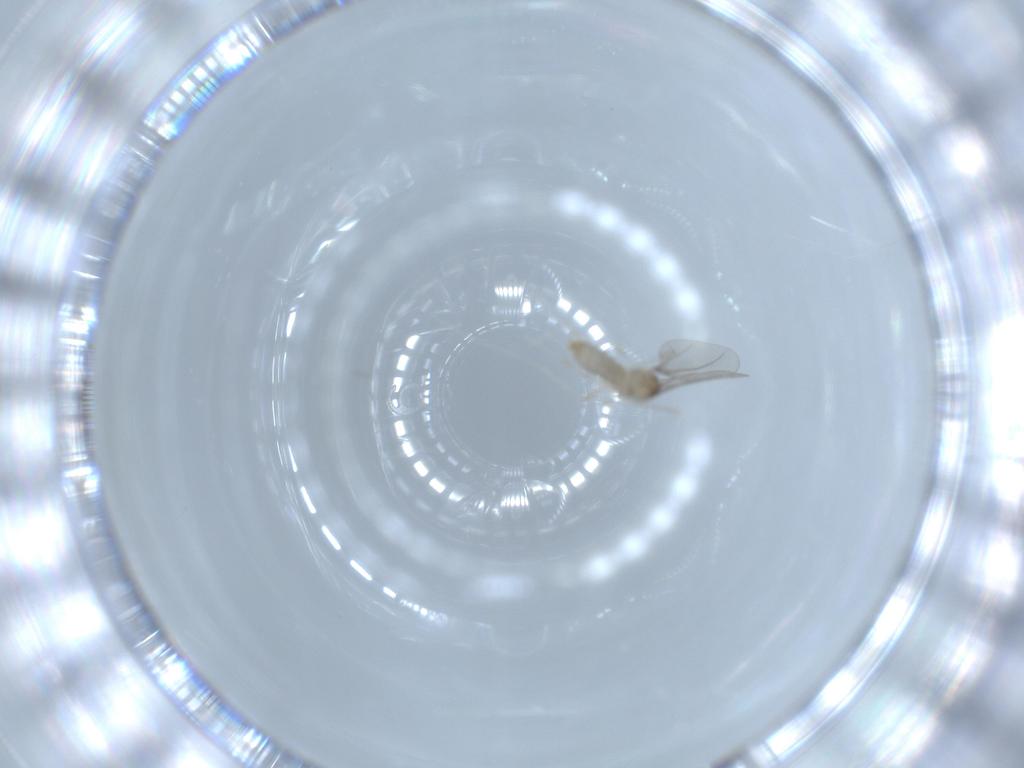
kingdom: Animalia
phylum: Arthropoda
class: Insecta
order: Diptera
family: Cecidomyiidae
